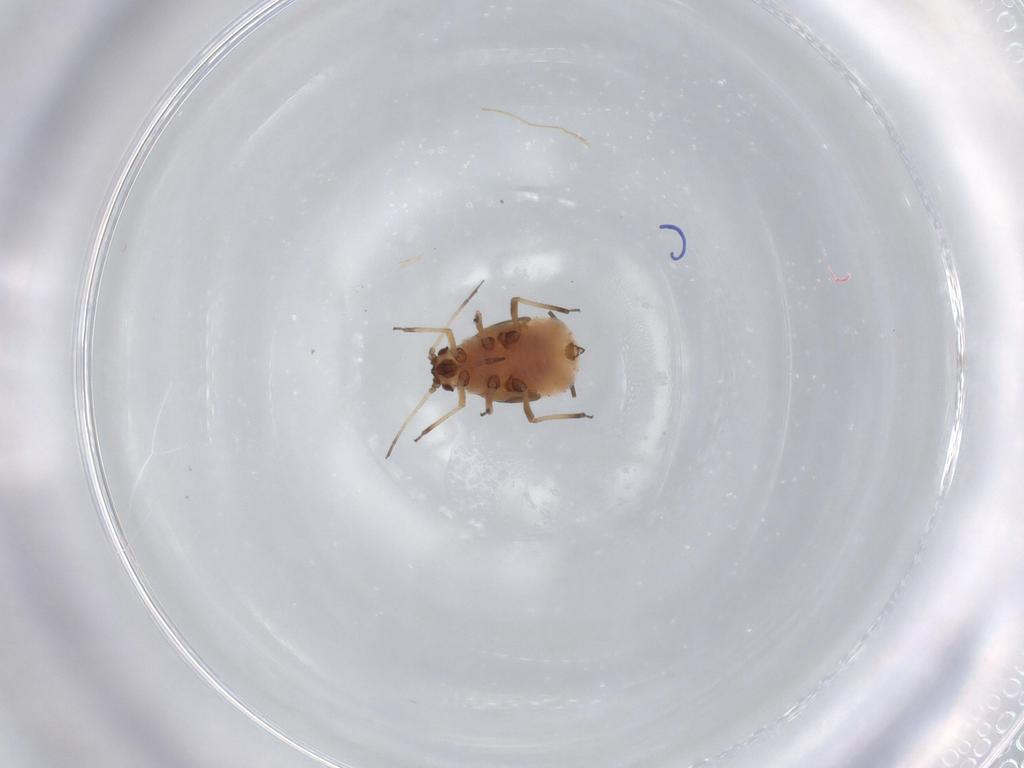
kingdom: Animalia
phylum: Arthropoda
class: Insecta
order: Hemiptera
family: Aphididae
